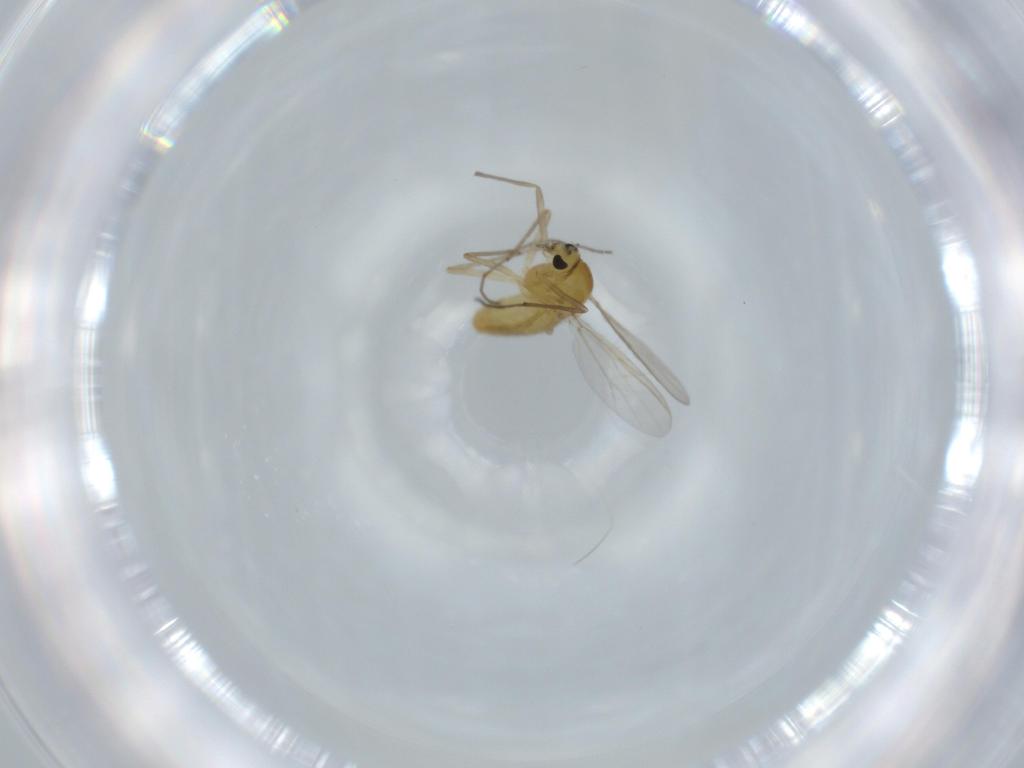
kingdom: Animalia
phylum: Arthropoda
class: Insecta
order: Diptera
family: Chironomidae
